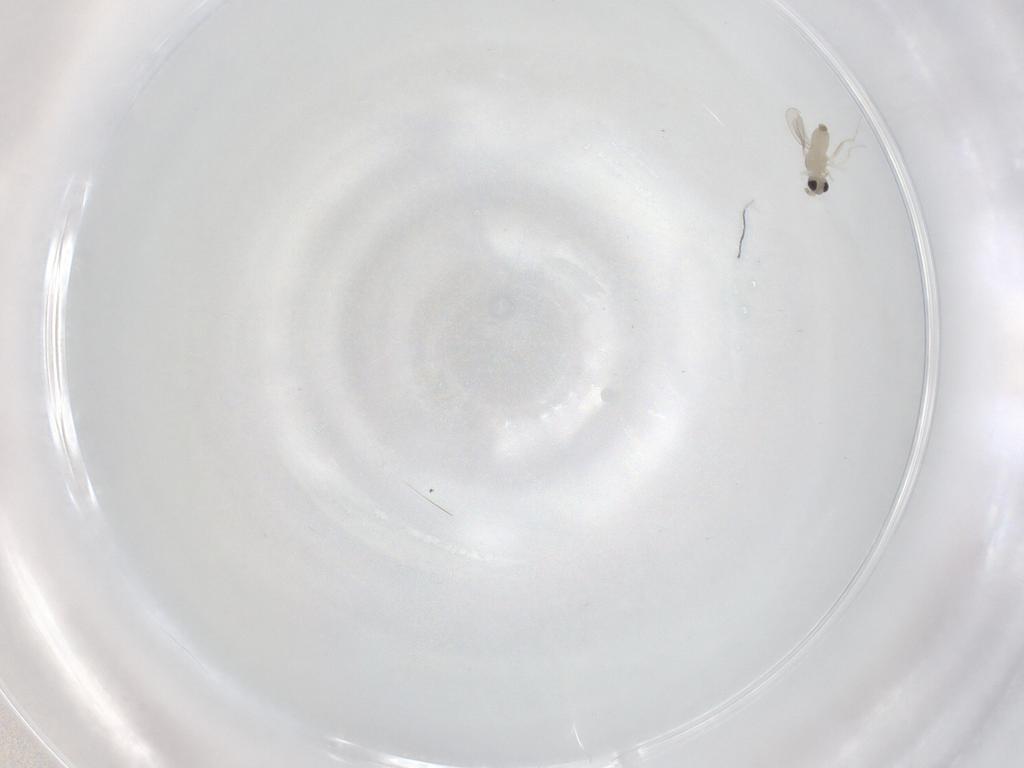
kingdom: Animalia
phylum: Arthropoda
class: Insecta
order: Diptera
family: Cecidomyiidae
